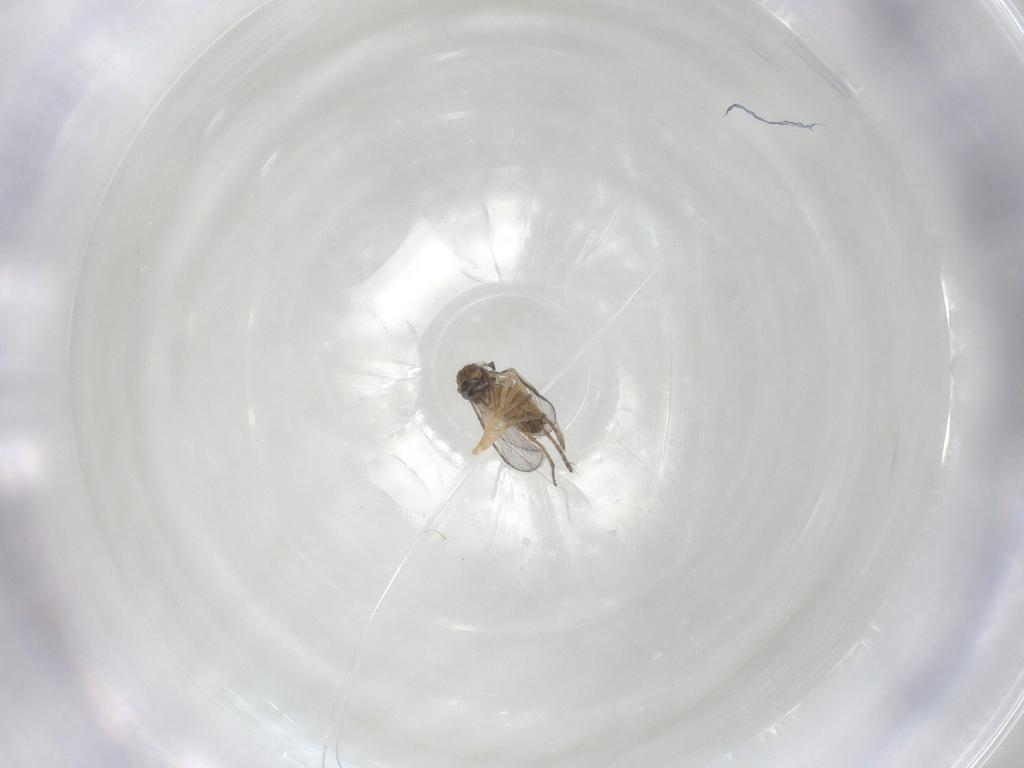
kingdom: Animalia
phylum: Arthropoda
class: Insecta
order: Diptera
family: Ceratopogonidae
